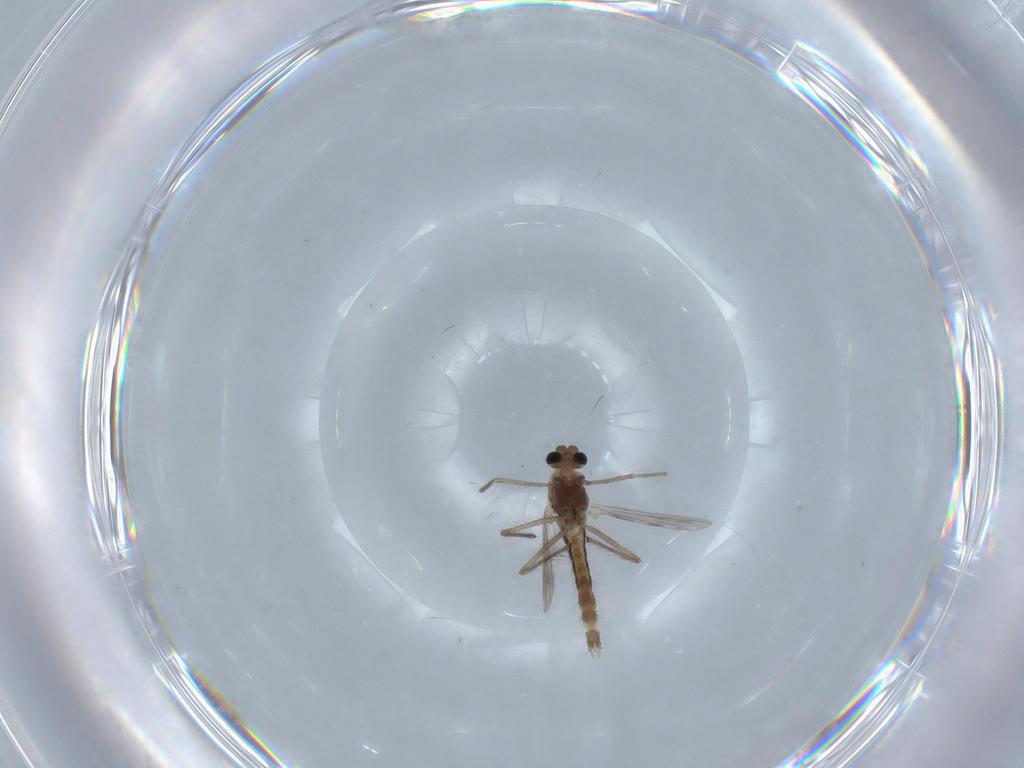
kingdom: Animalia
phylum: Arthropoda
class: Insecta
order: Diptera
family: Chironomidae
